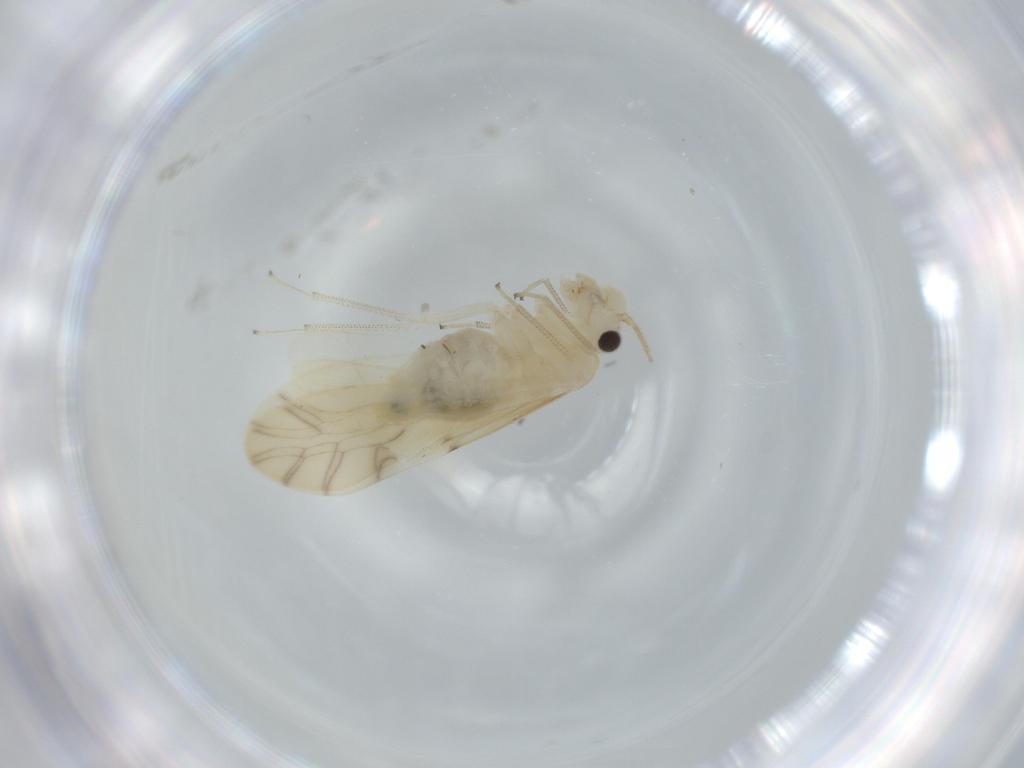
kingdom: Animalia
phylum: Arthropoda
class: Insecta
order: Psocodea
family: Caeciliusidae
